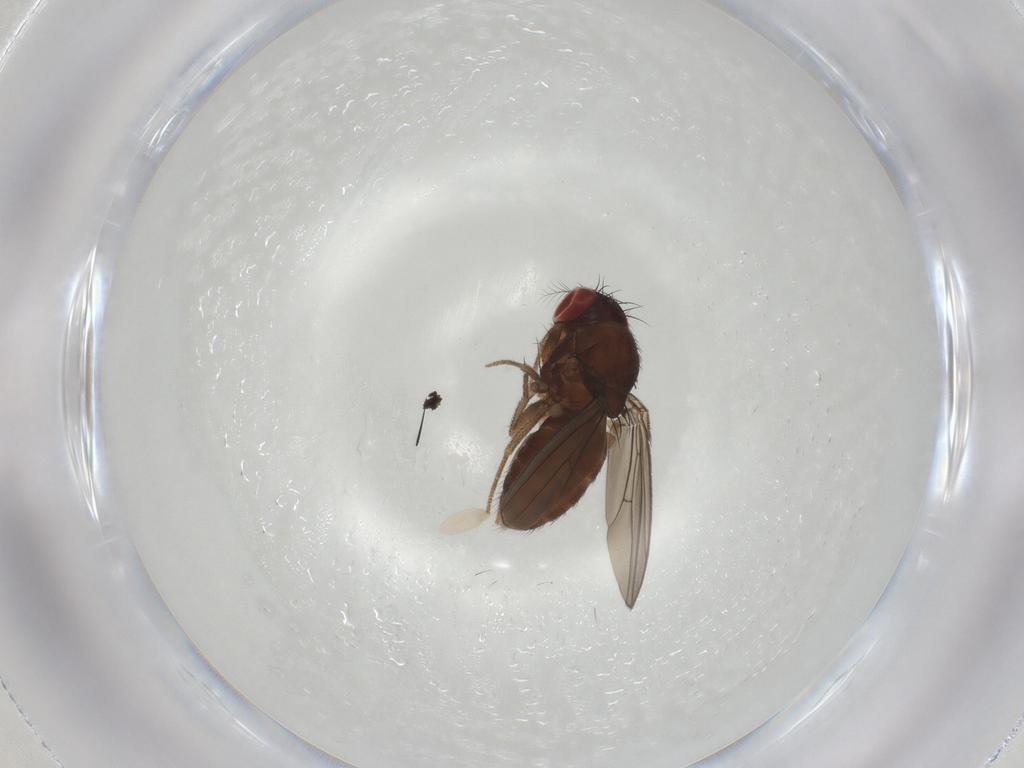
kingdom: Animalia
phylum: Arthropoda
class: Insecta
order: Diptera
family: Drosophilidae
